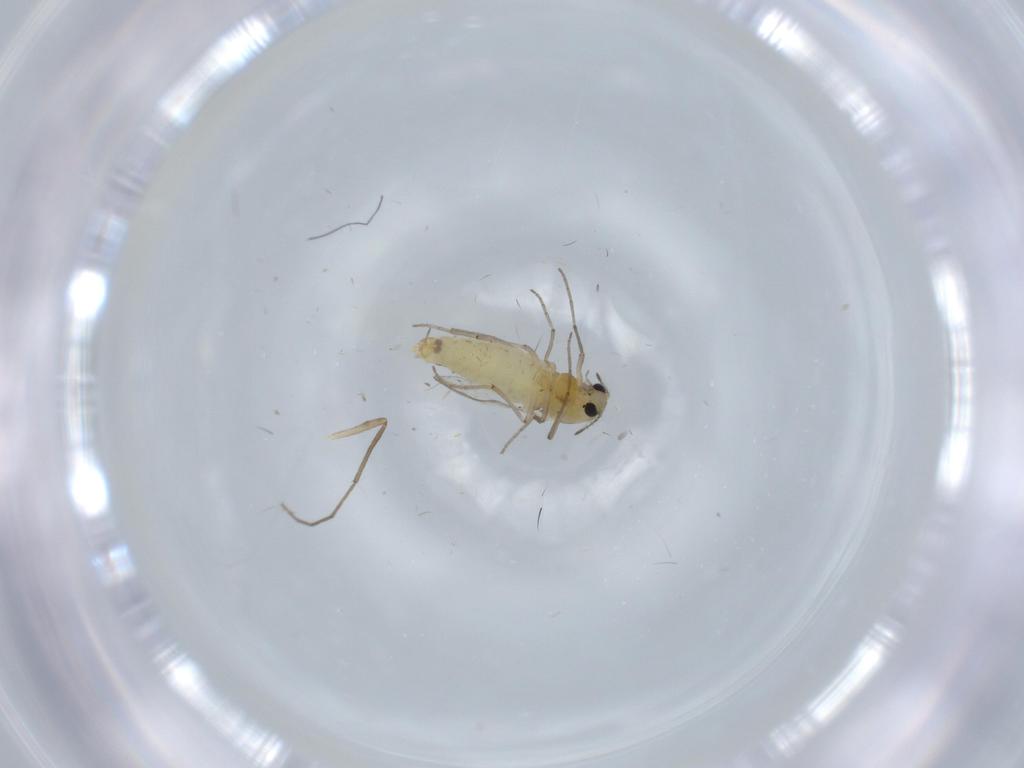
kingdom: Animalia
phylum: Arthropoda
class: Insecta
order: Diptera
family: Chironomidae
